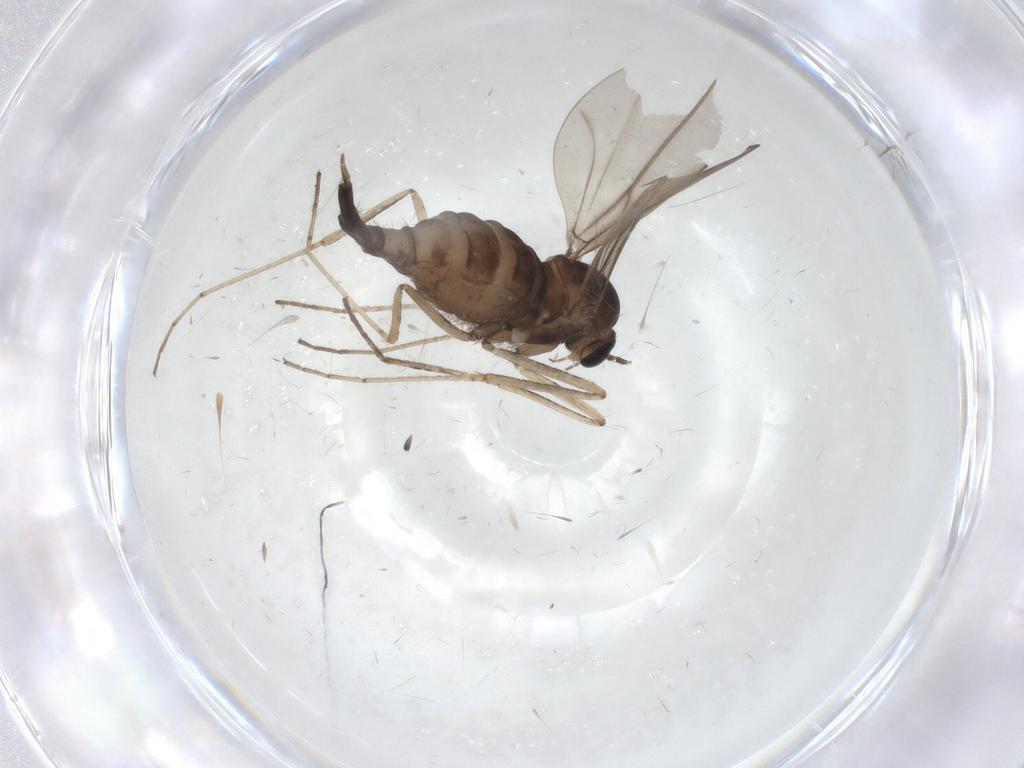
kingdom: Animalia
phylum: Arthropoda
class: Insecta
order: Diptera
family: Cecidomyiidae
